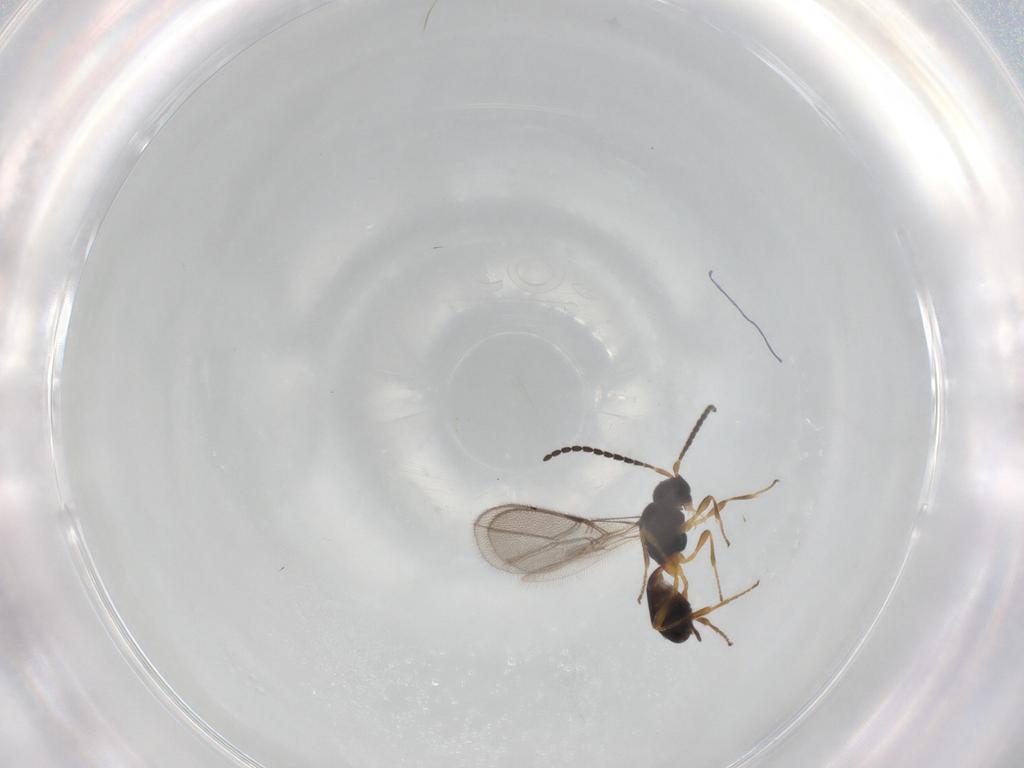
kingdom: Animalia
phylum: Arthropoda
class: Insecta
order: Hymenoptera
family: Braconidae
